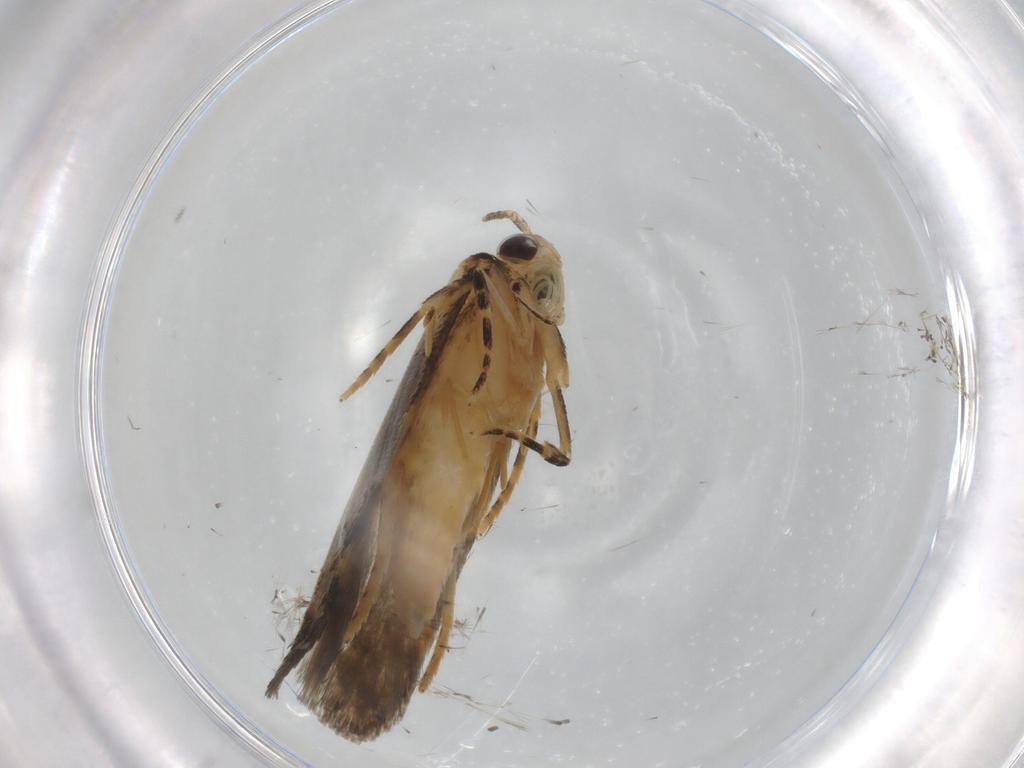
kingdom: Animalia
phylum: Arthropoda
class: Insecta
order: Lepidoptera
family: Autostichidae
